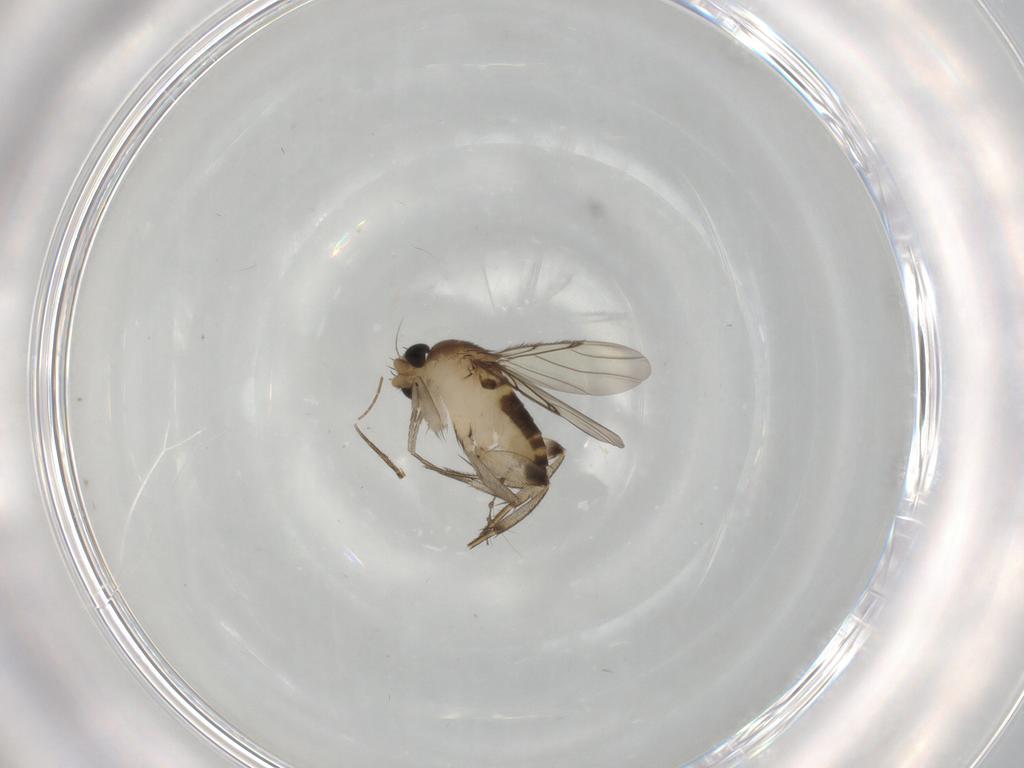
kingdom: Animalia
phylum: Arthropoda
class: Insecta
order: Diptera
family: Phoridae
